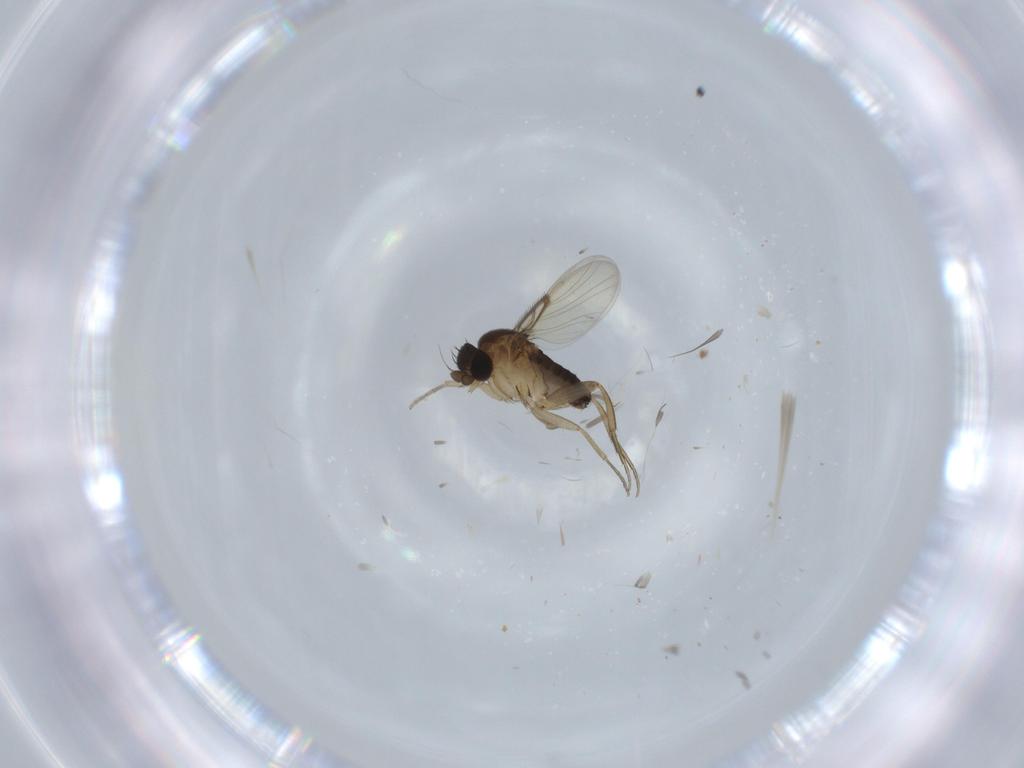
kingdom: Animalia
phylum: Arthropoda
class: Insecta
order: Diptera
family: Phoridae
